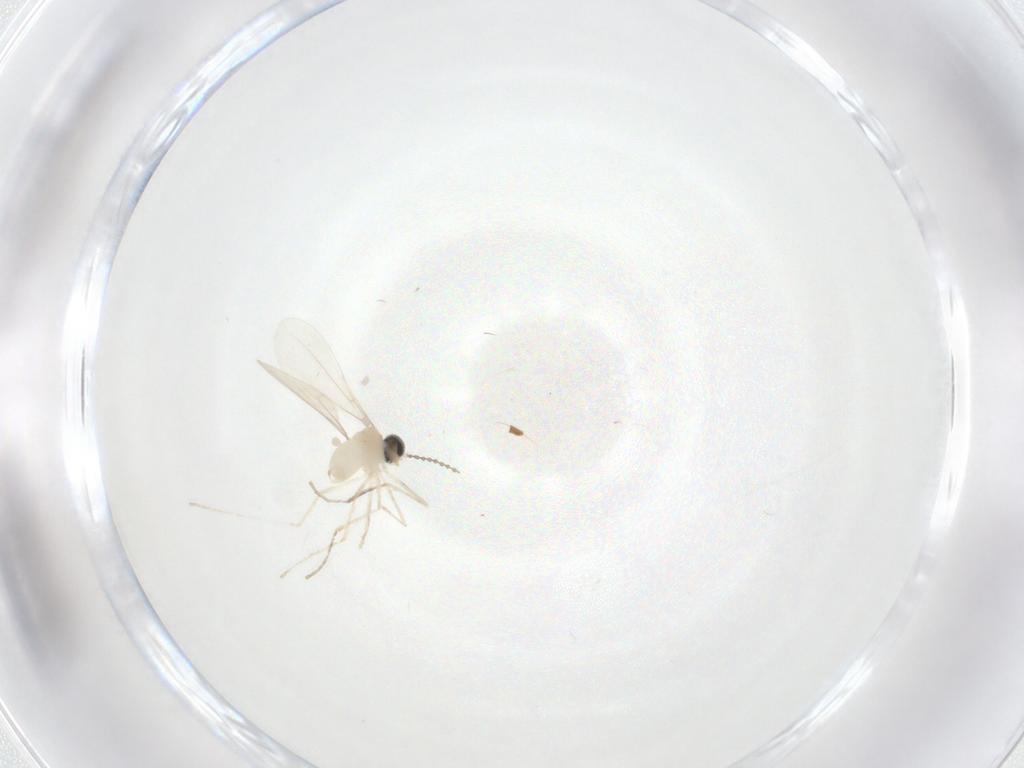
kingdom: Animalia
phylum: Arthropoda
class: Insecta
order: Diptera
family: Cecidomyiidae
